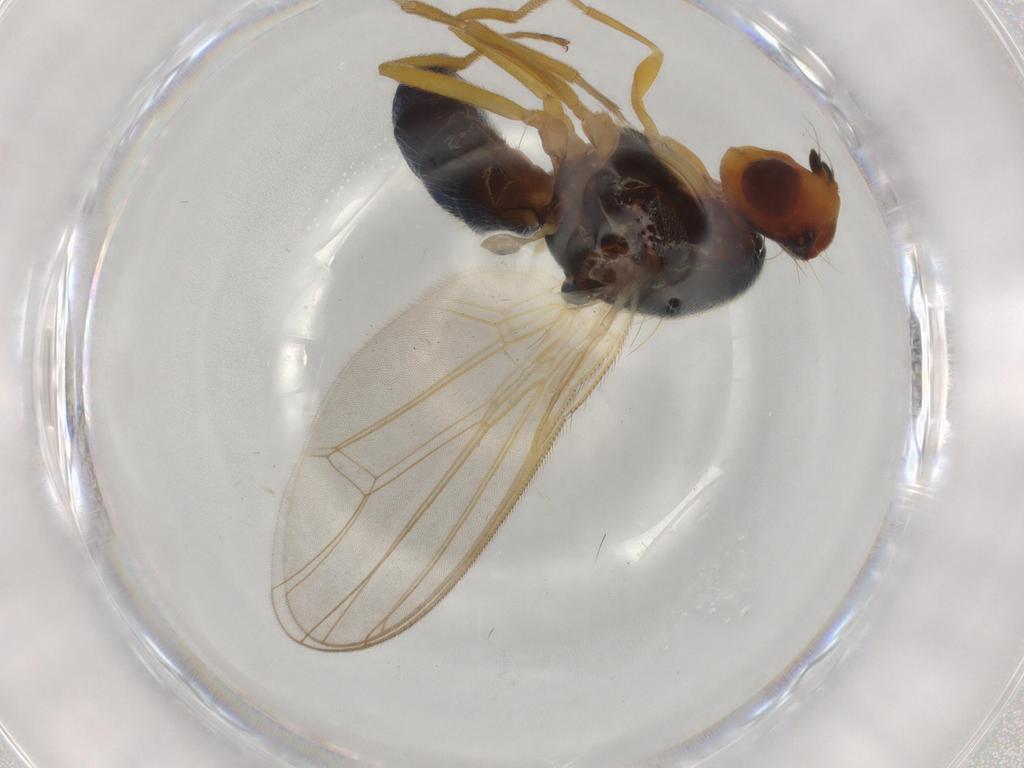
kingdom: Animalia
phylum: Arthropoda
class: Insecta
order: Diptera
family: Hybotidae
